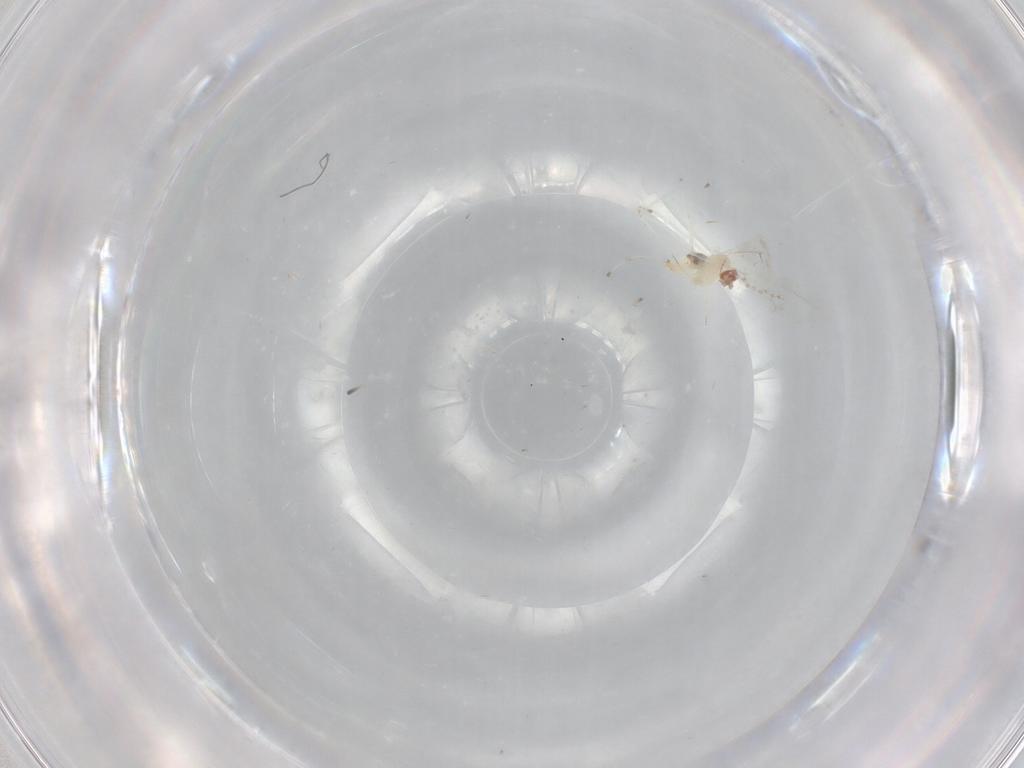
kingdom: Animalia
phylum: Arthropoda
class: Insecta
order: Diptera
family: Cecidomyiidae
